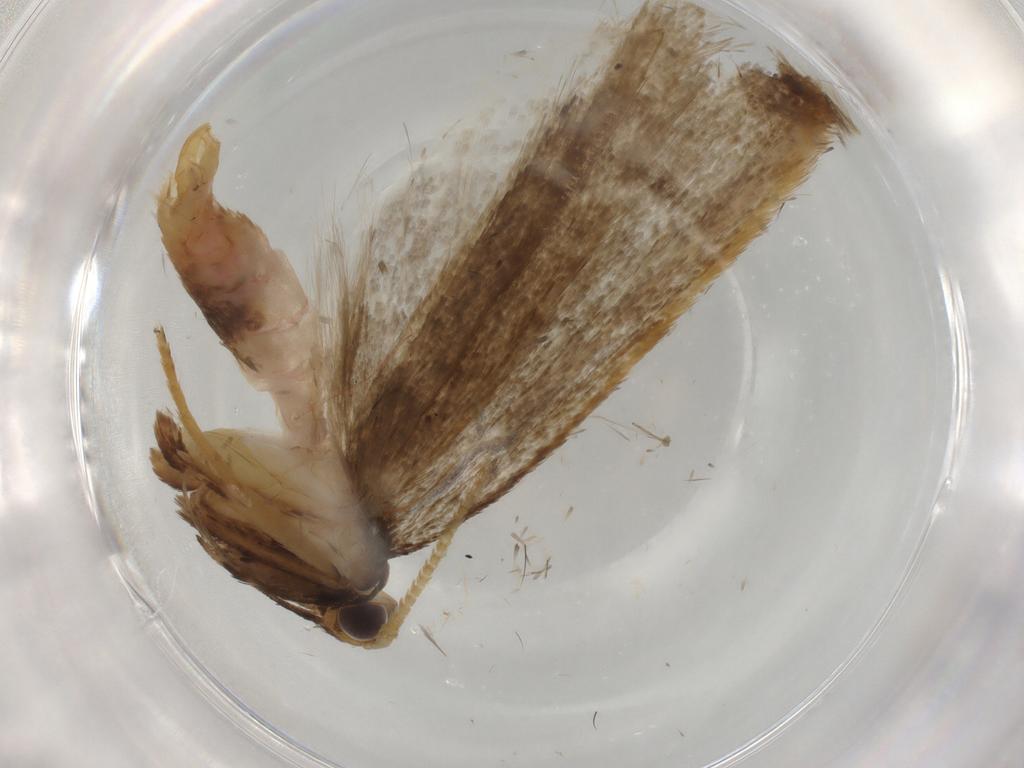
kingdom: Animalia
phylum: Arthropoda
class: Insecta
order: Lepidoptera
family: Lecithoceridae
